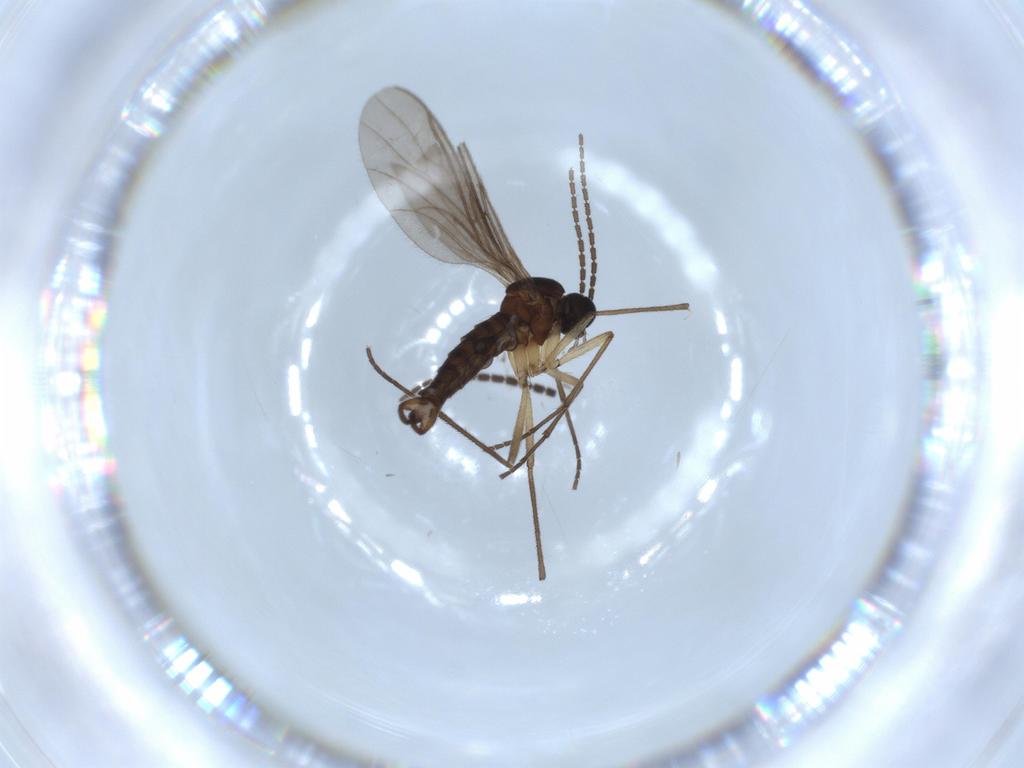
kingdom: Animalia
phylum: Arthropoda
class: Insecta
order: Diptera
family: Sciaridae
